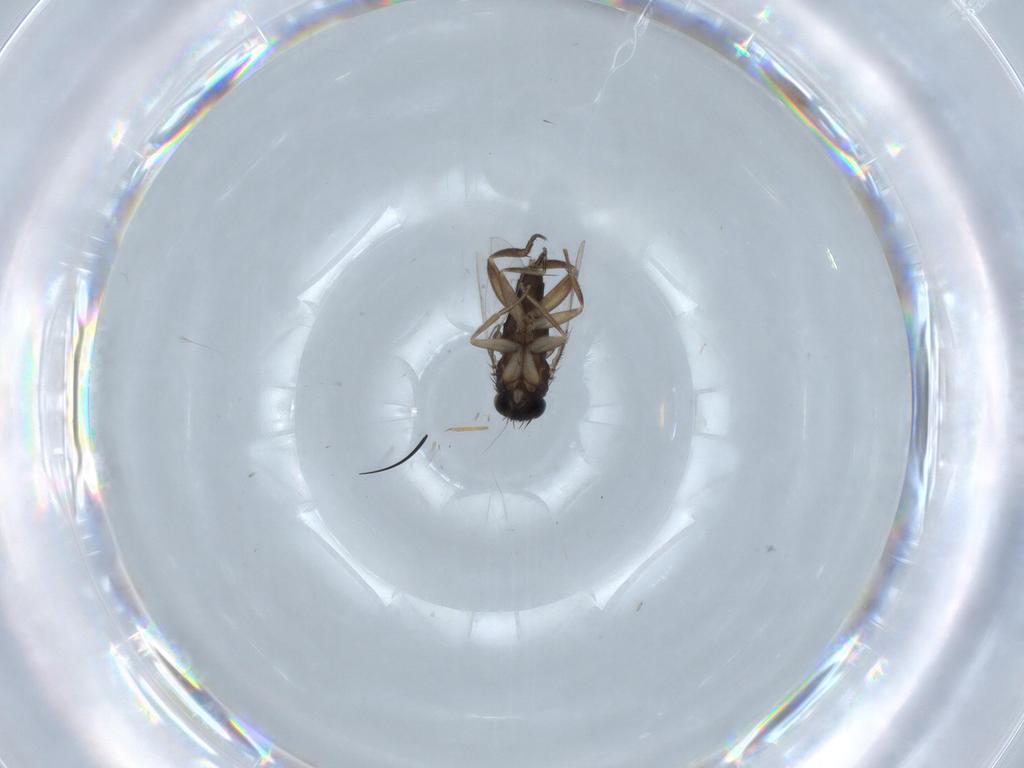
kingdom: Animalia
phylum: Arthropoda
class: Insecta
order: Diptera
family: Phoridae
